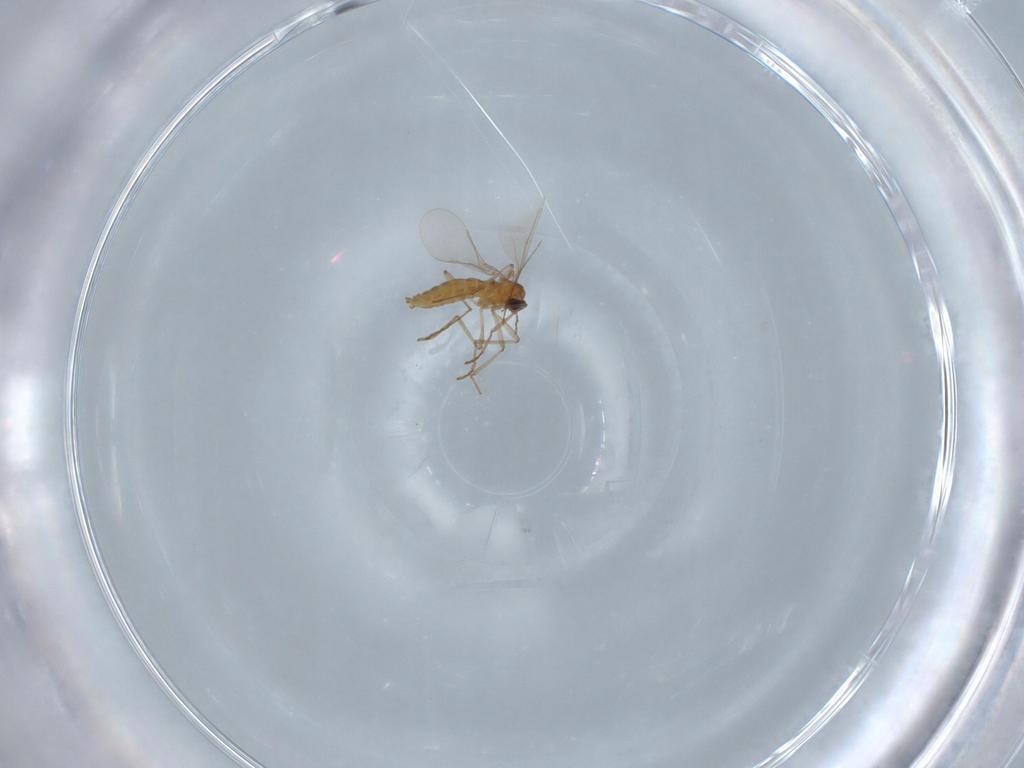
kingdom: Animalia
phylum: Arthropoda
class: Insecta
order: Diptera
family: Cecidomyiidae
